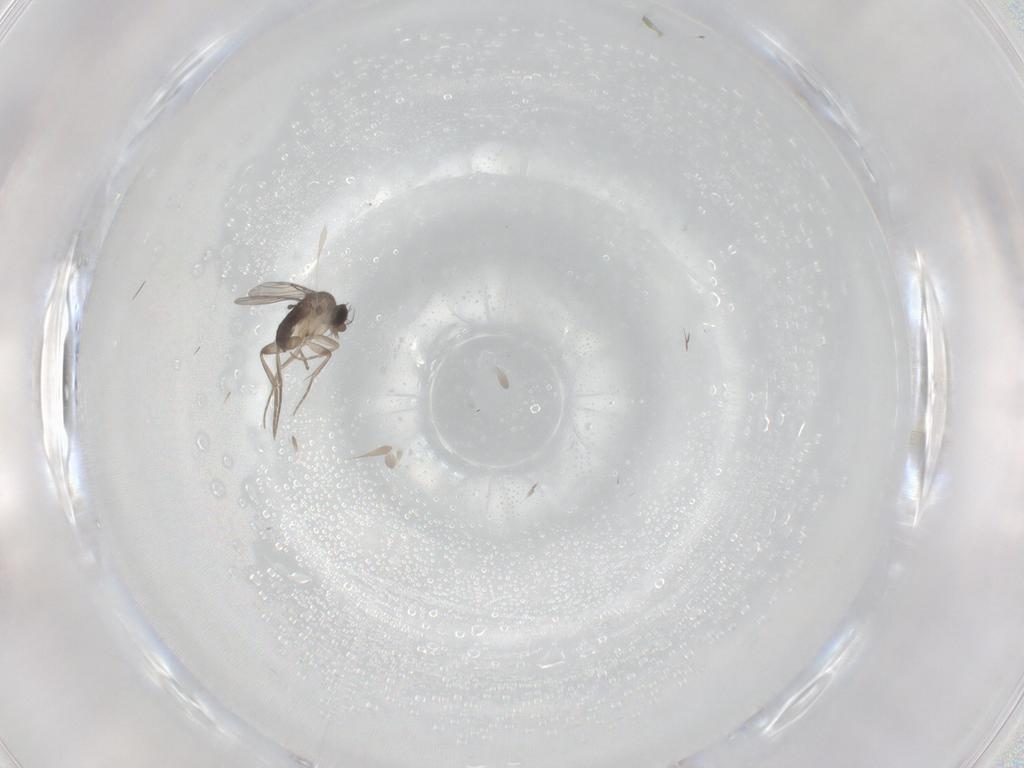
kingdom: Animalia
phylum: Arthropoda
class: Insecta
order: Diptera
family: Phoridae
